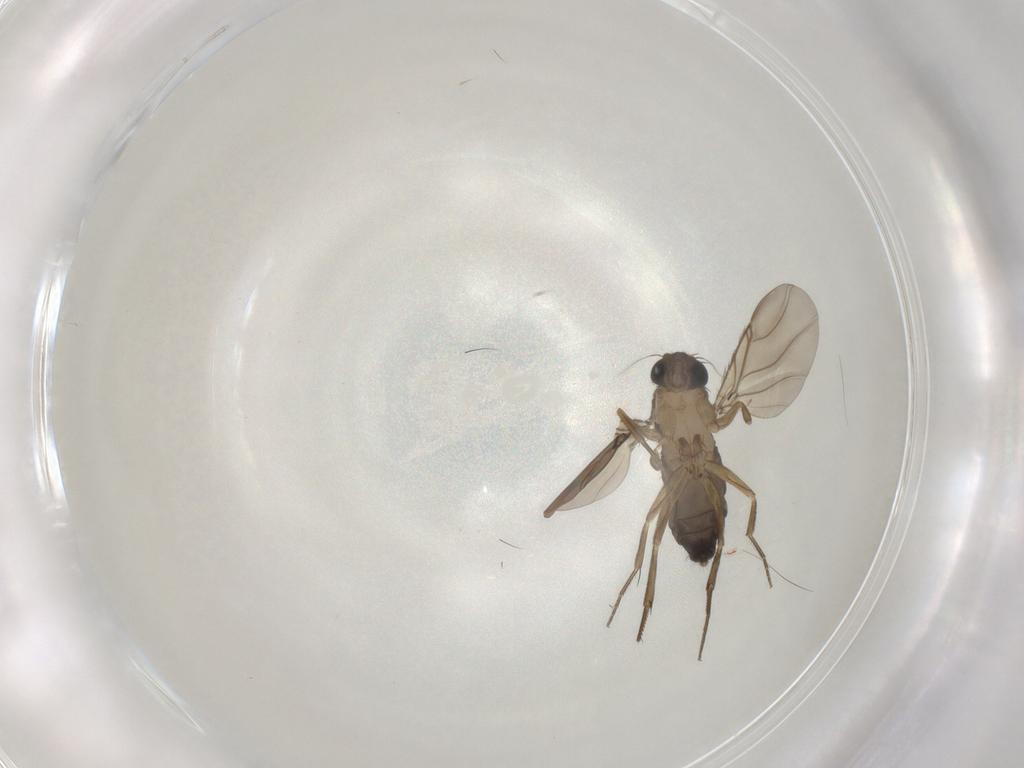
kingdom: Animalia
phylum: Arthropoda
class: Insecta
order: Diptera
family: Phoridae
